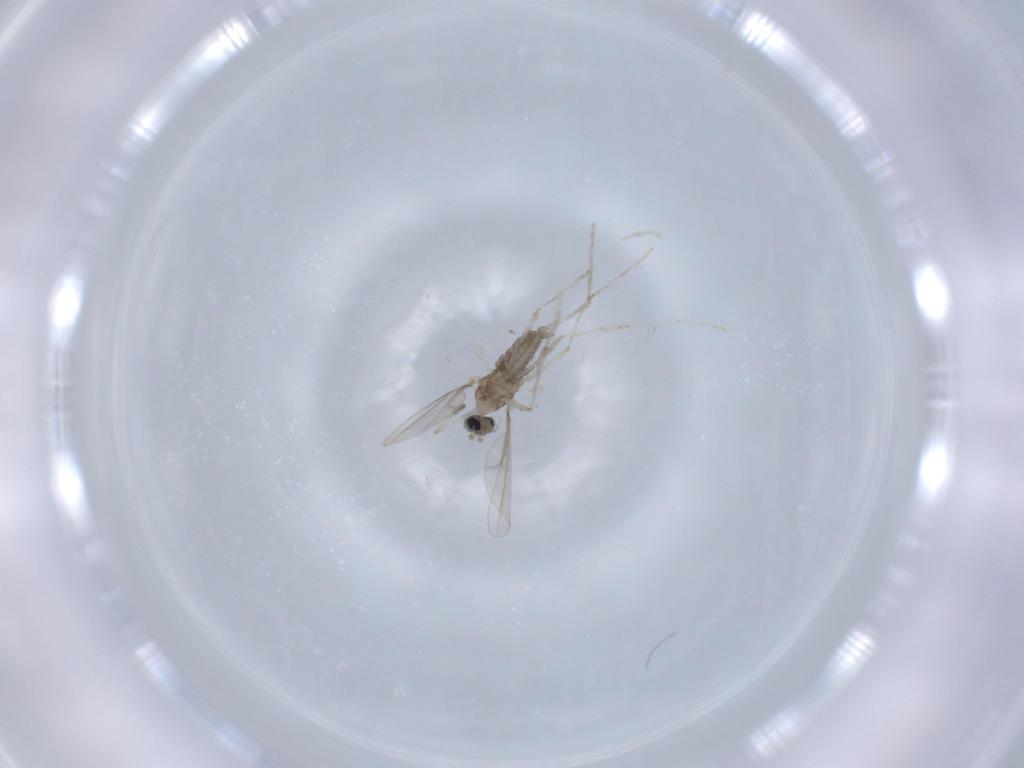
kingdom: Animalia
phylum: Arthropoda
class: Insecta
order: Diptera
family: Cecidomyiidae
